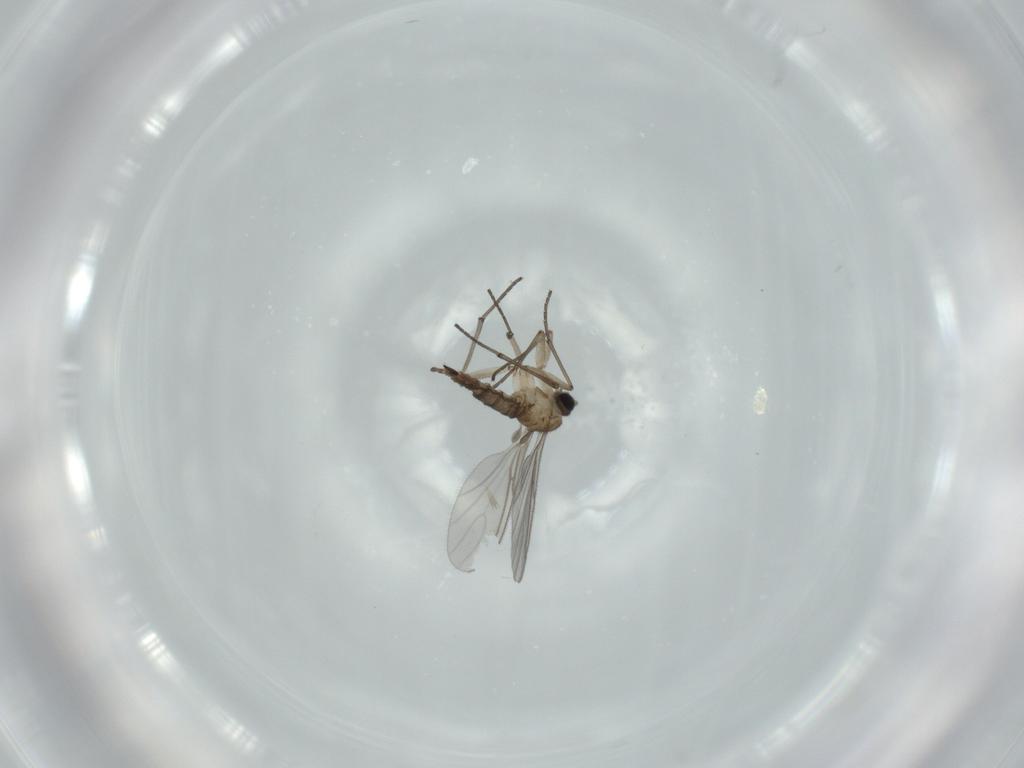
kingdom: Animalia
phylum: Arthropoda
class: Insecta
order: Diptera
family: Sciaridae
